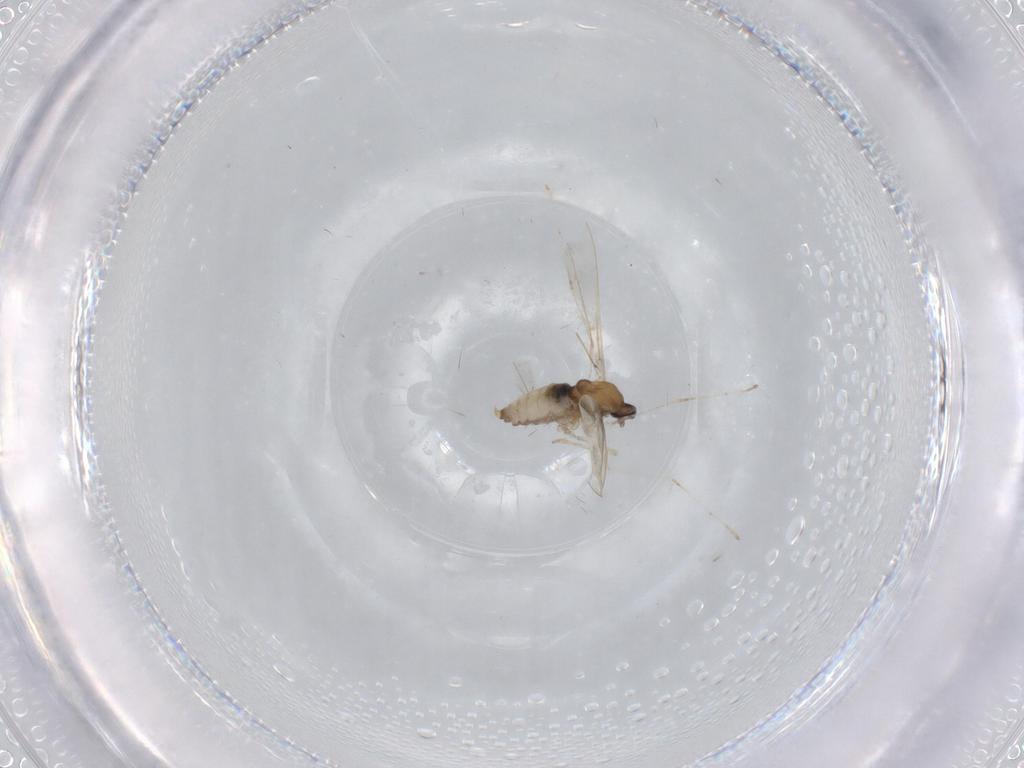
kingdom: Animalia
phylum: Arthropoda
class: Insecta
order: Diptera
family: Cecidomyiidae
